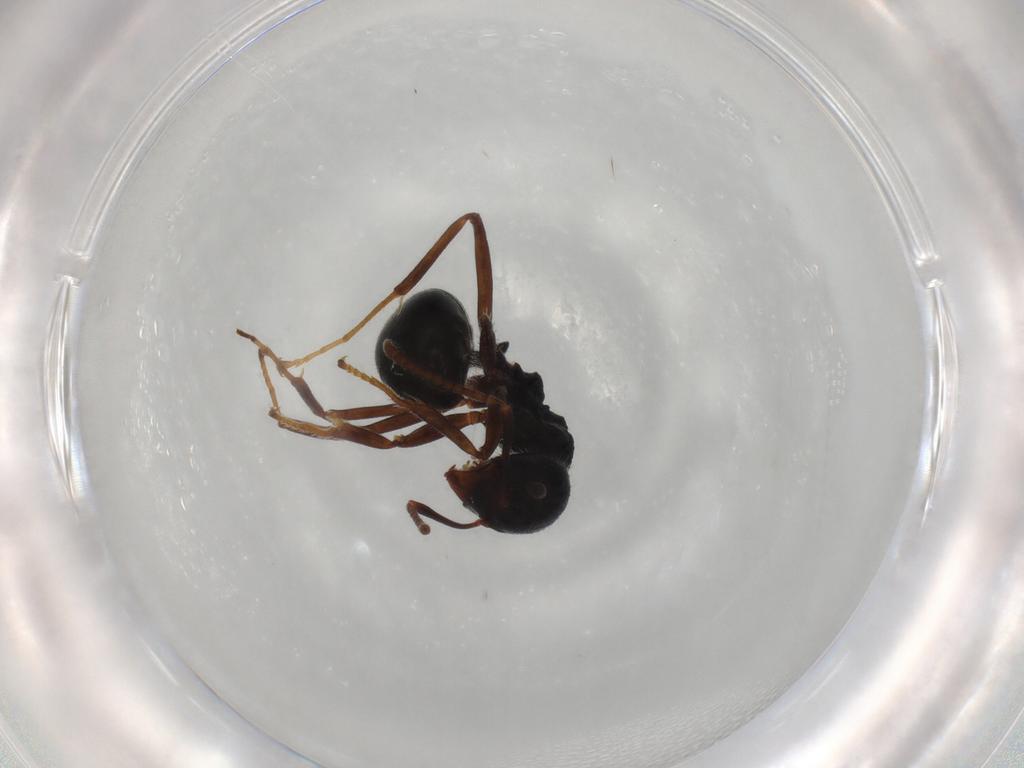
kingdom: Animalia
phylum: Arthropoda
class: Insecta
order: Hymenoptera
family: Formicidae
